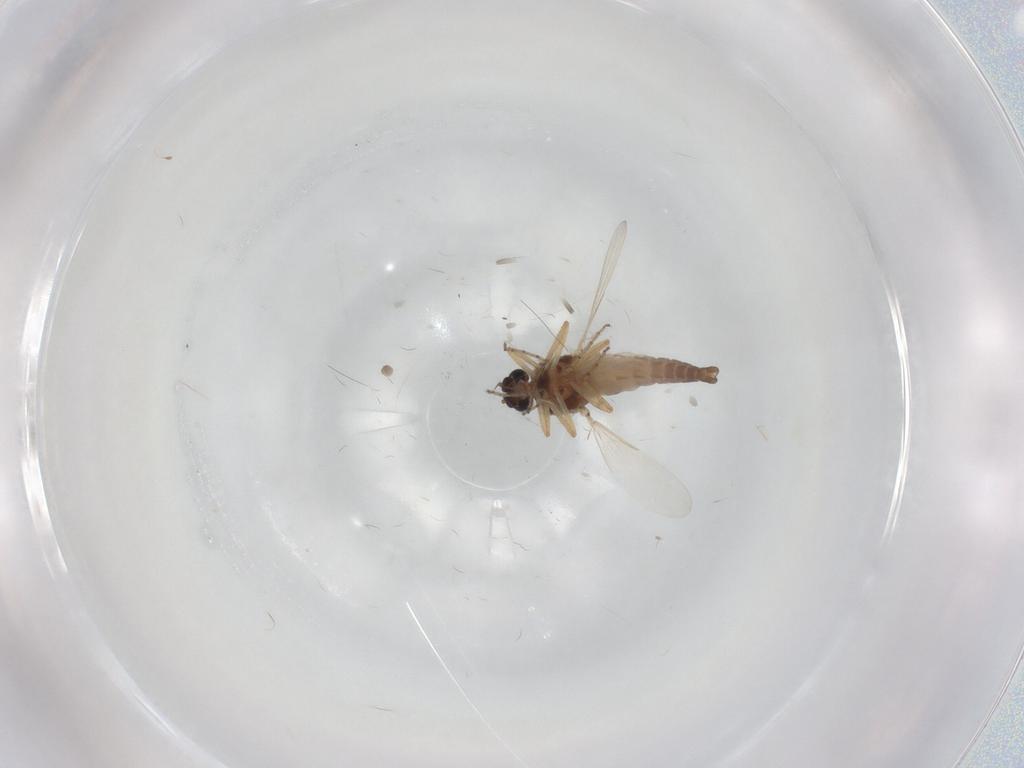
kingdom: Animalia
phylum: Arthropoda
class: Insecta
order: Diptera
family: Ceratopogonidae
